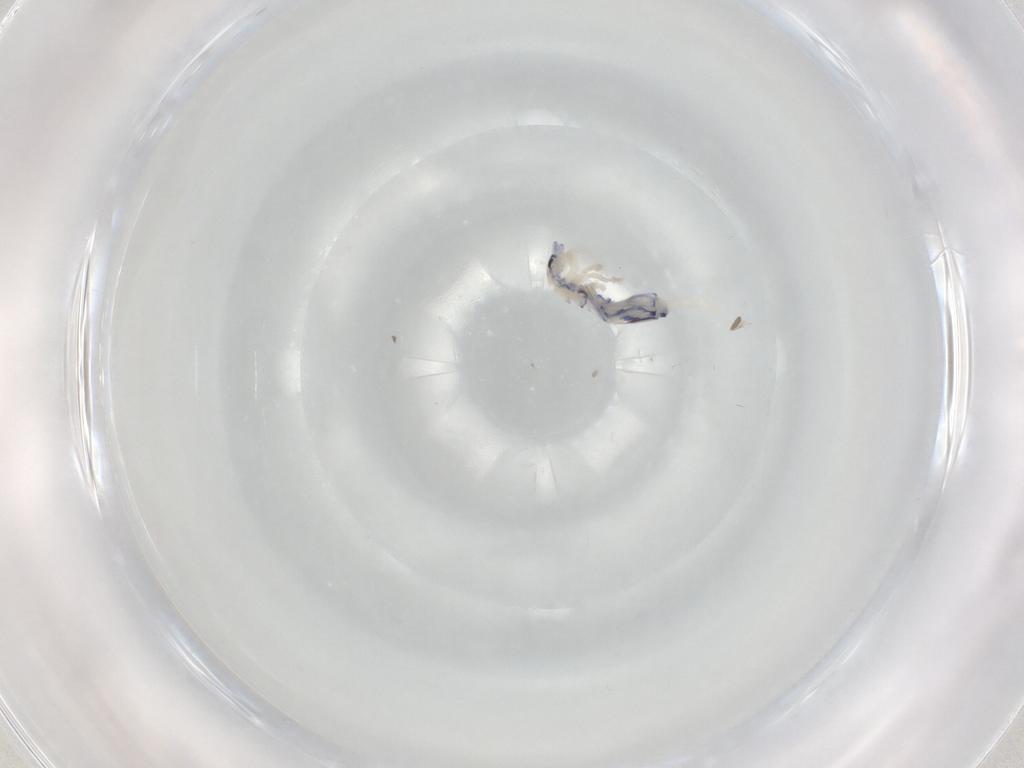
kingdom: Animalia
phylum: Arthropoda
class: Collembola
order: Entomobryomorpha
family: Entomobryidae
